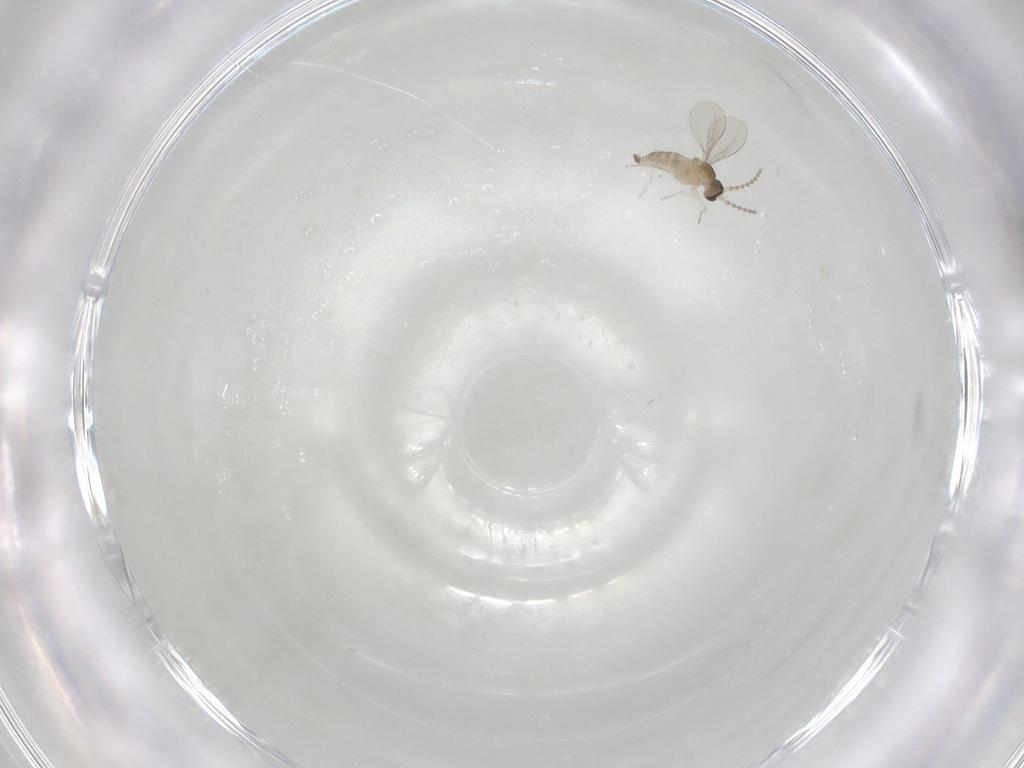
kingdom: Animalia
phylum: Arthropoda
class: Insecta
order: Diptera
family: Cecidomyiidae
